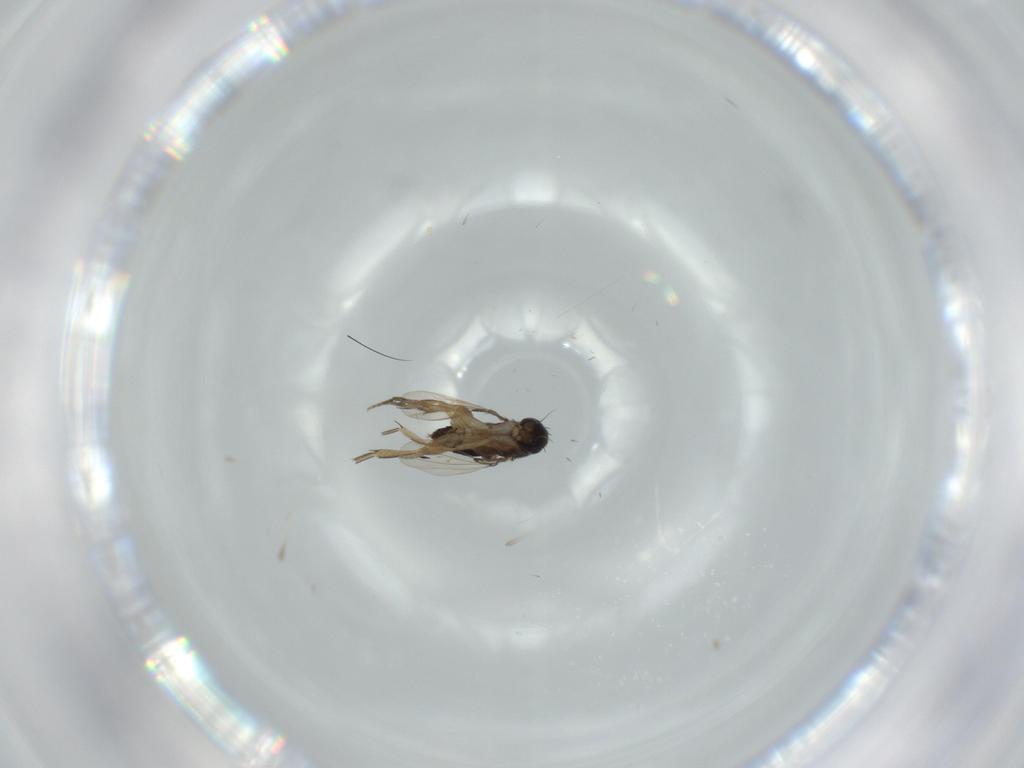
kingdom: Animalia
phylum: Arthropoda
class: Insecta
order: Diptera
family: Phoridae
